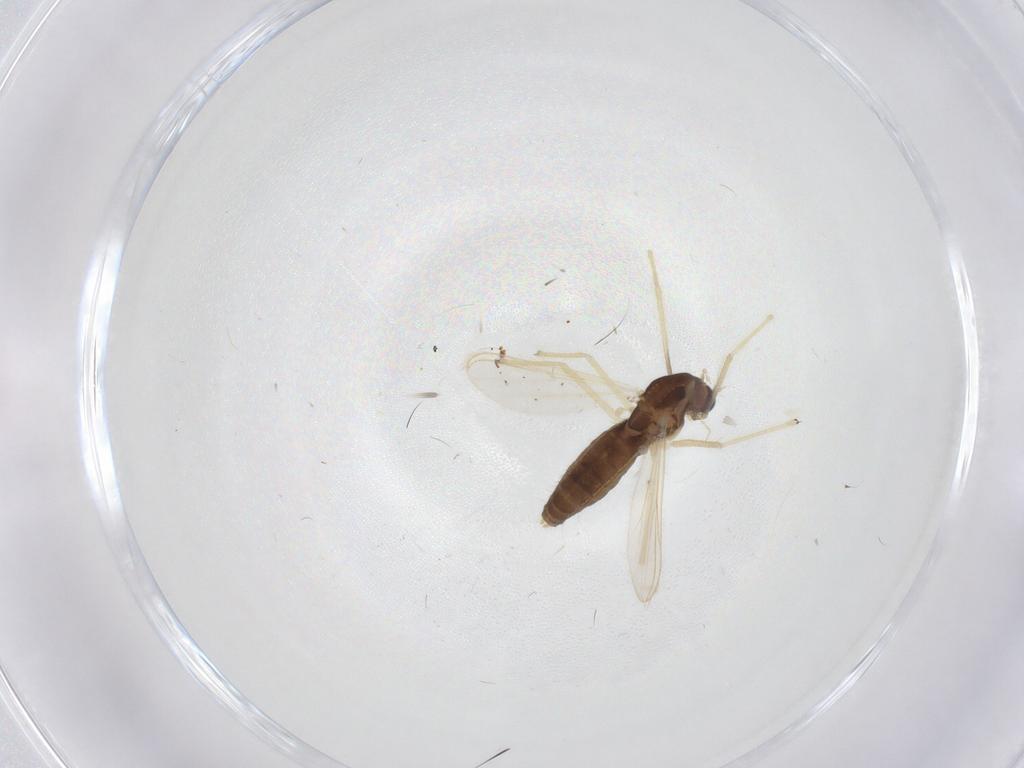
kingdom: Animalia
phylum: Arthropoda
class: Insecta
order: Diptera
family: Chironomidae
